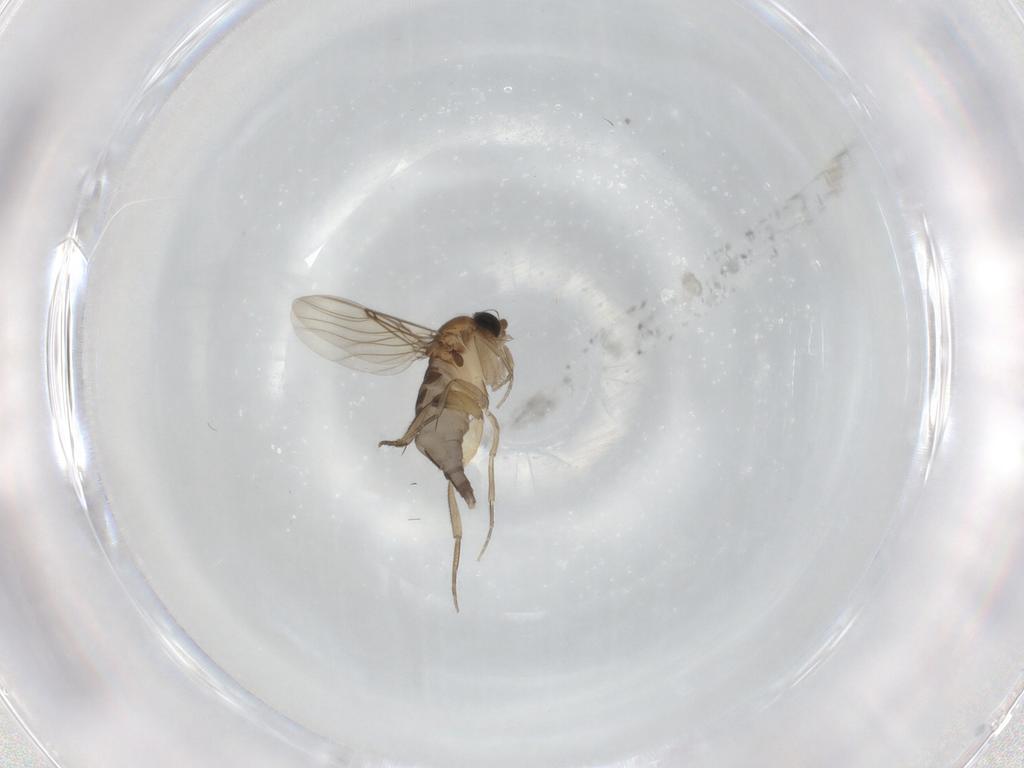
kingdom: Animalia
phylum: Arthropoda
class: Insecta
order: Diptera
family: Phoridae
